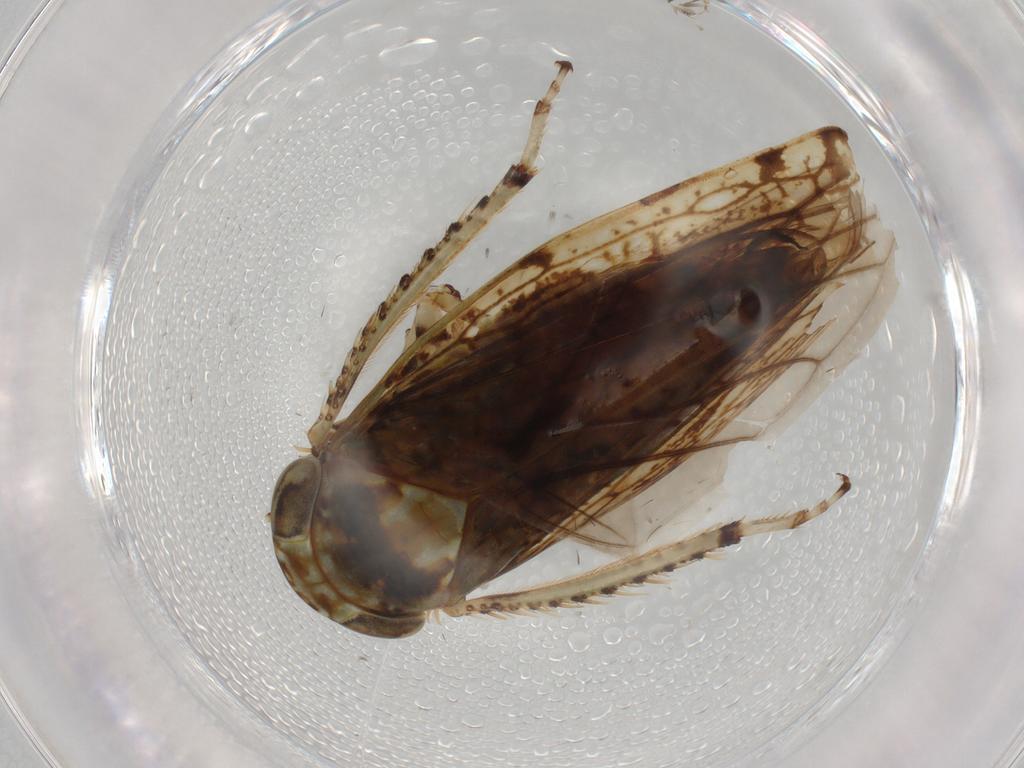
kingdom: Animalia
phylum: Arthropoda
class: Insecta
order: Hemiptera
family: Cicadellidae
